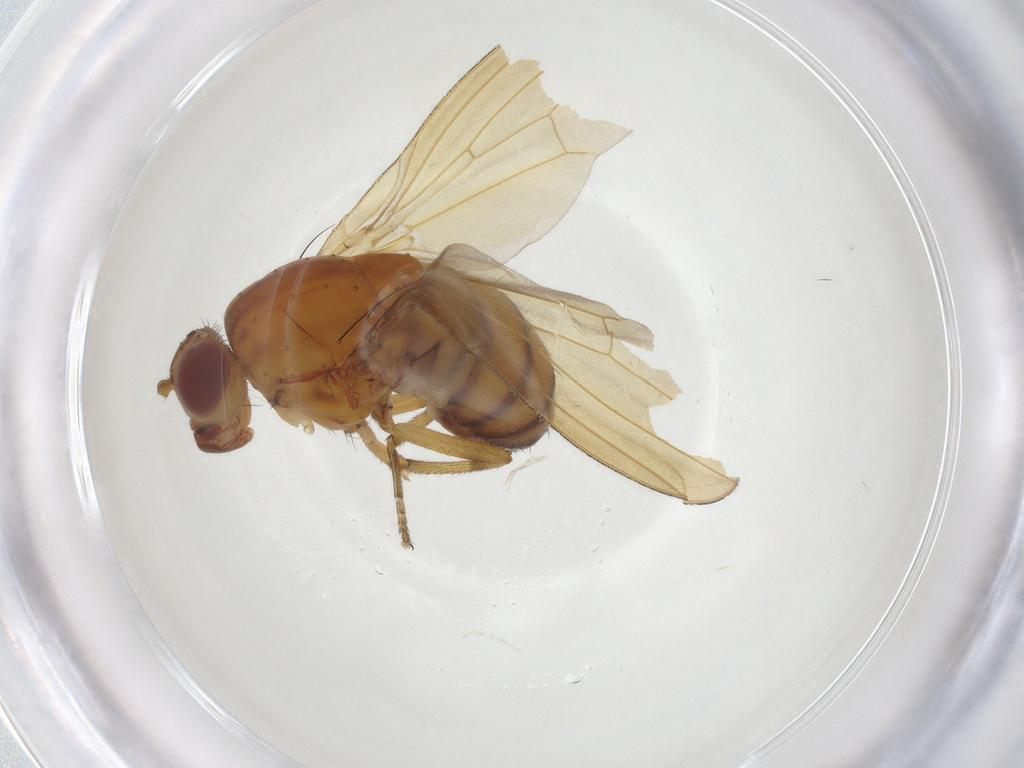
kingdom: Animalia
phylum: Arthropoda
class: Insecta
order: Diptera
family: Lauxaniidae
